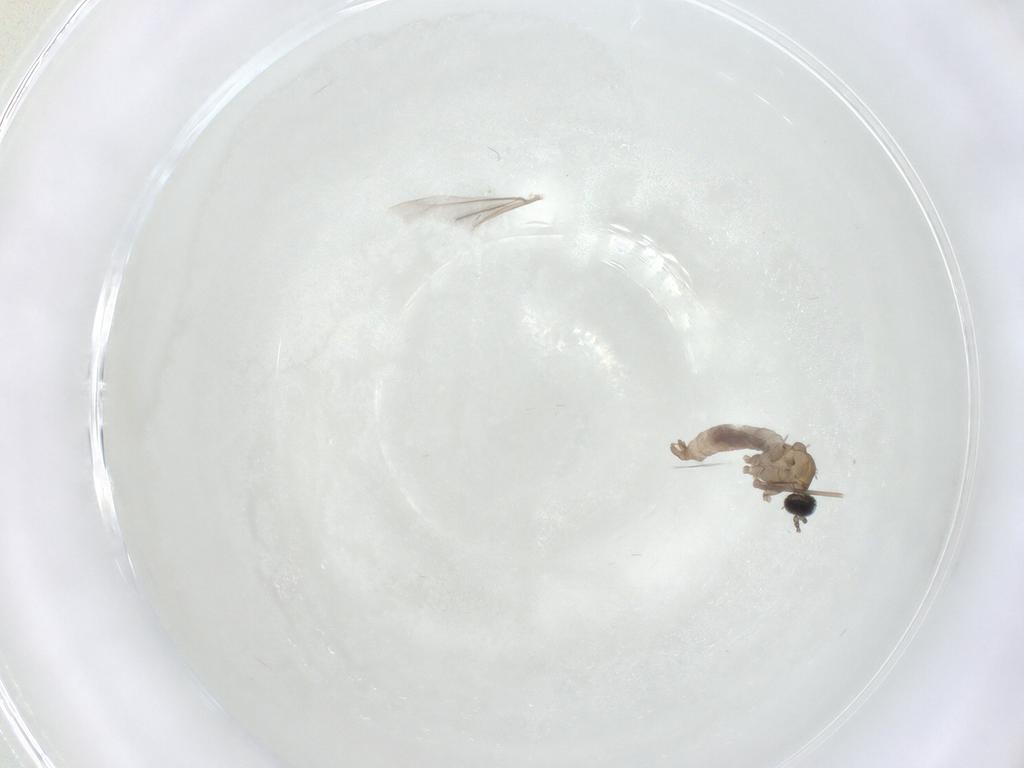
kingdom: Animalia
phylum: Arthropoda
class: Insecta
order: Diptera
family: Cecidomyiidae
